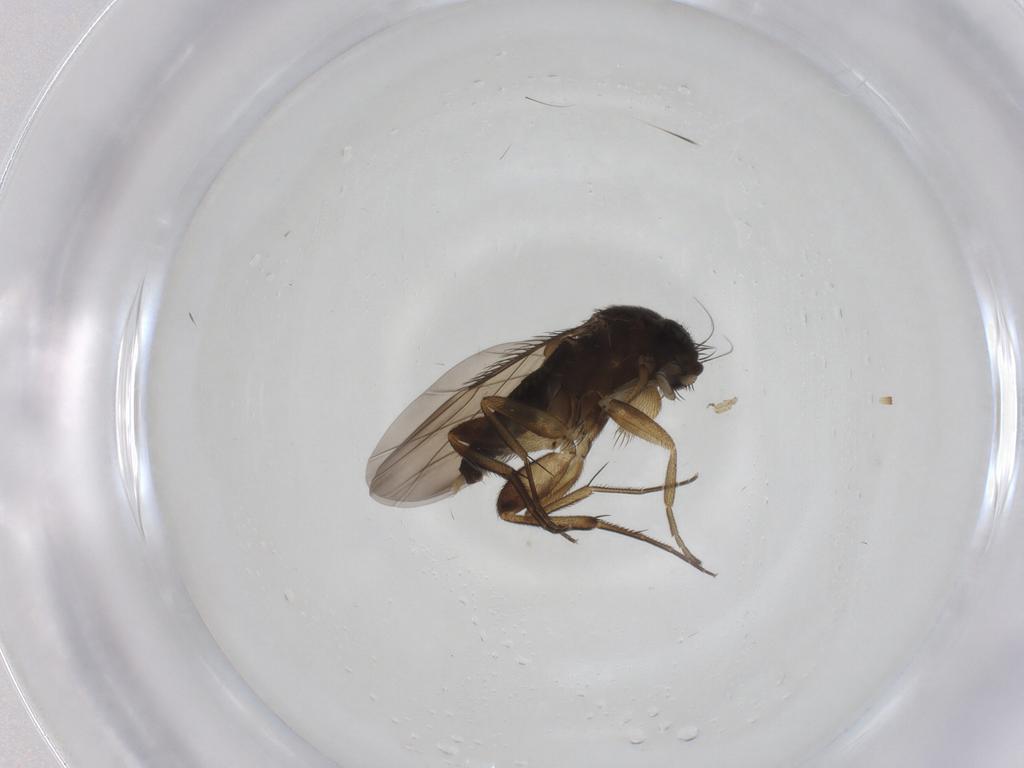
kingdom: Animalia
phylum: Arthropoda
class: Insecta
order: Diptera
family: Phoridae
